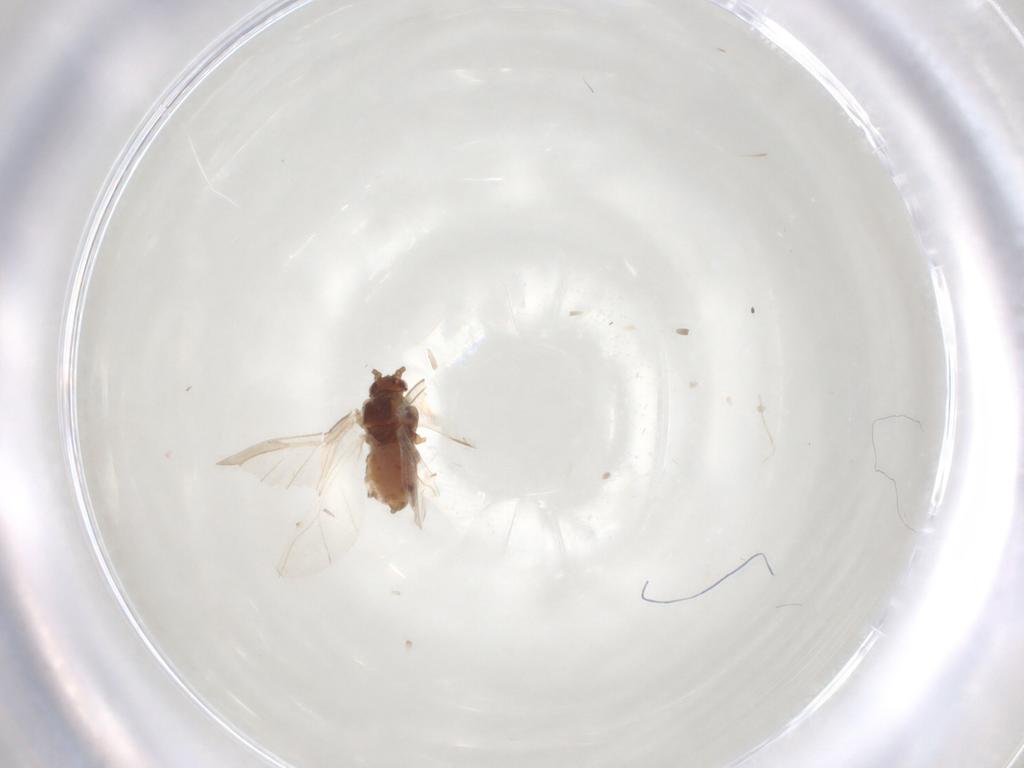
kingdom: Animalia
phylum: Arthropoda
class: Insecta
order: Hemiptera
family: Aphididae
